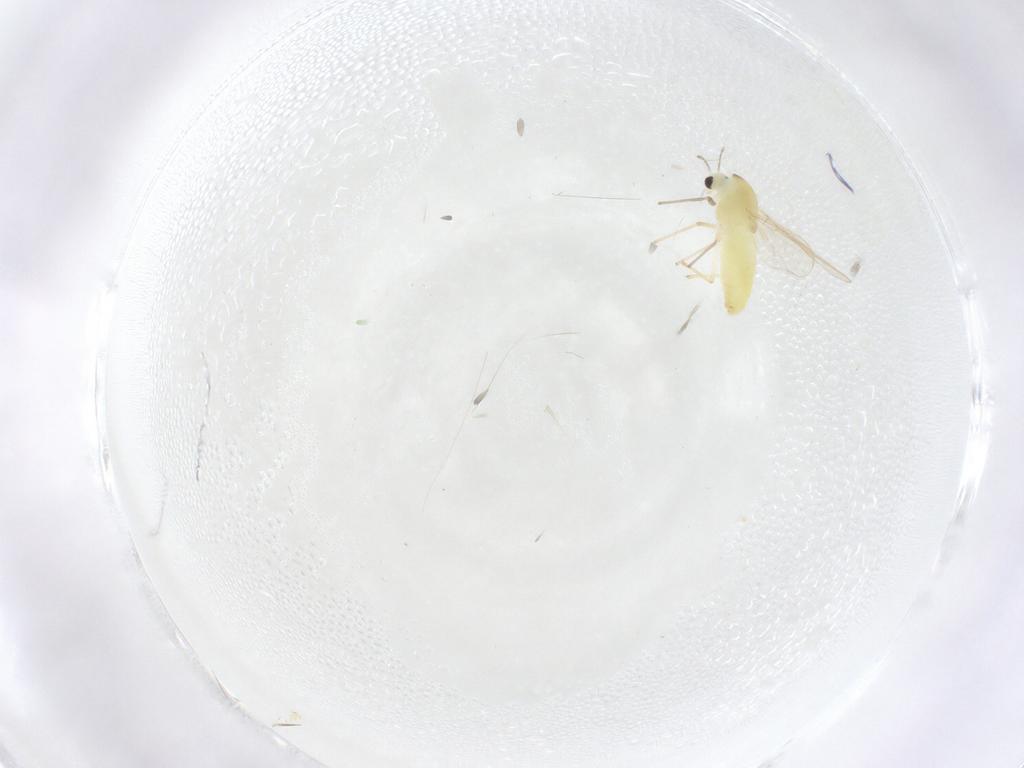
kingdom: Animalia
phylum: Arthropoda
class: Insecta
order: Diptera
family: Chironomidae
